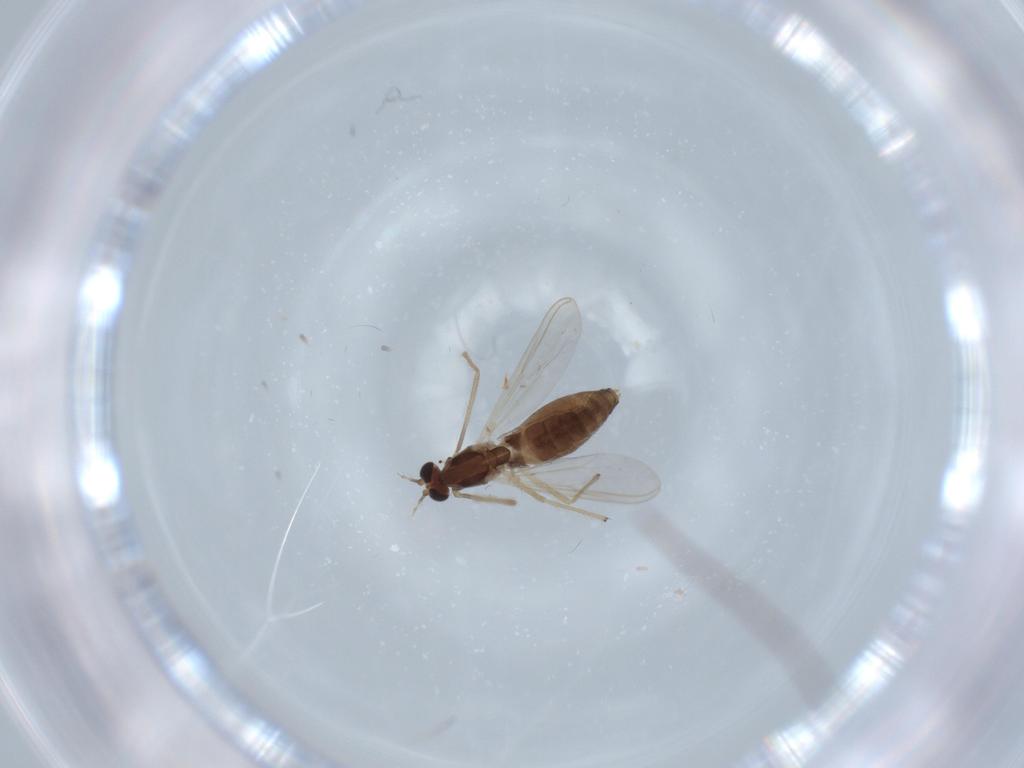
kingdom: Animalia
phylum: Arthropoda
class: Insecta
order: Diptera
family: Chironomidae
